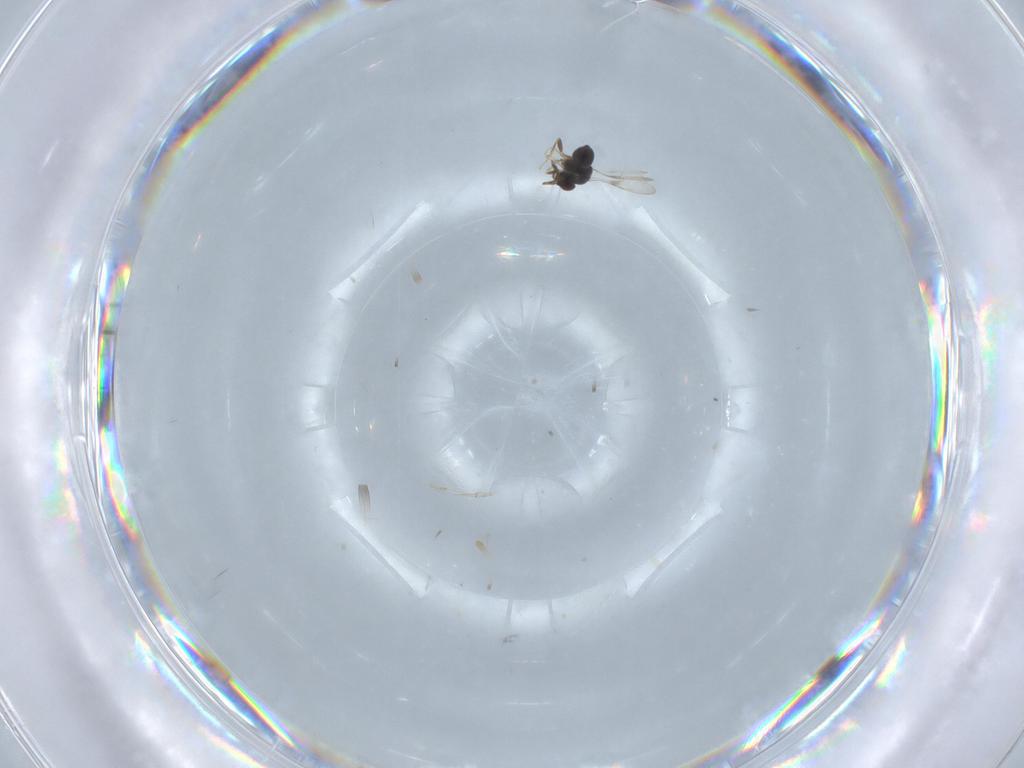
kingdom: Animalia
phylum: Arthropoda
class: Insecta
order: Hymenoptera
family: Ceraphronidae
